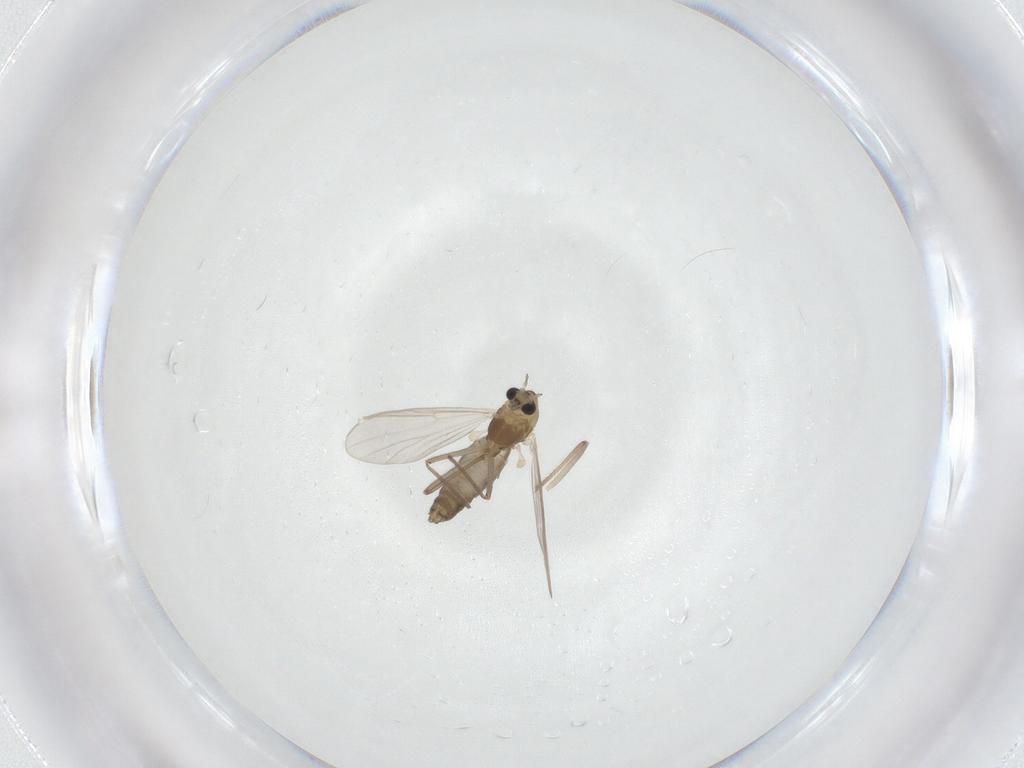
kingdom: Animalia
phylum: Arthropoda
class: Insecta
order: Diptera
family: Chironomidae
